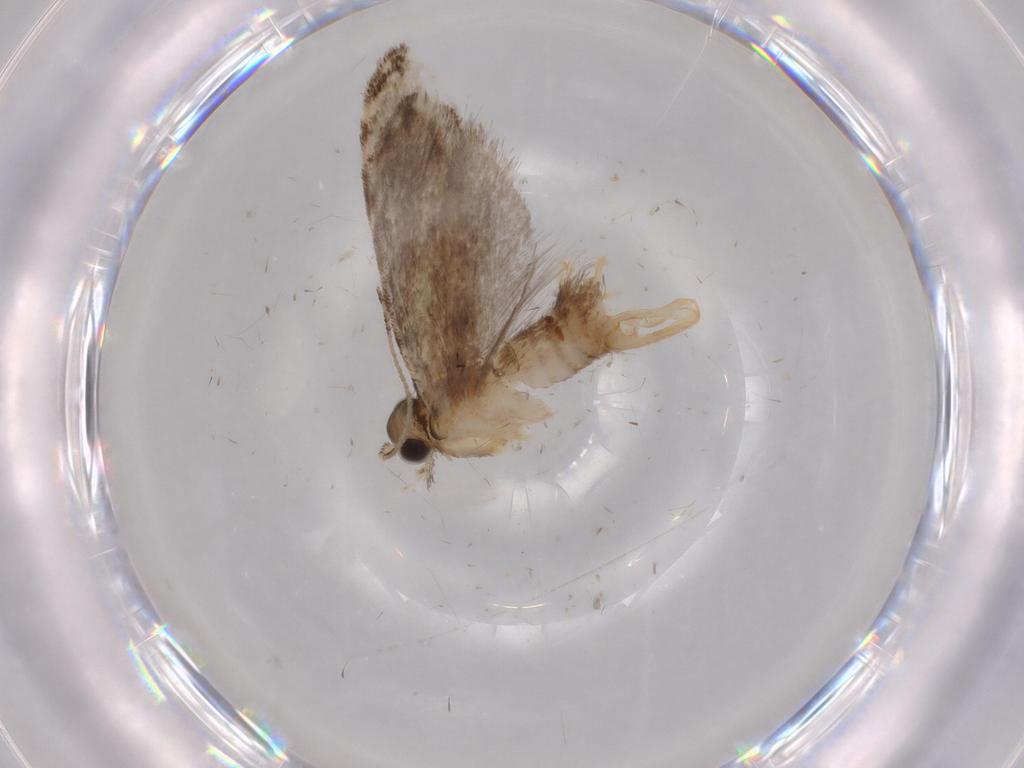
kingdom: Animalia
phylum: Arthropoda
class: Insecta
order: Lepidoptera
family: Tineidae
